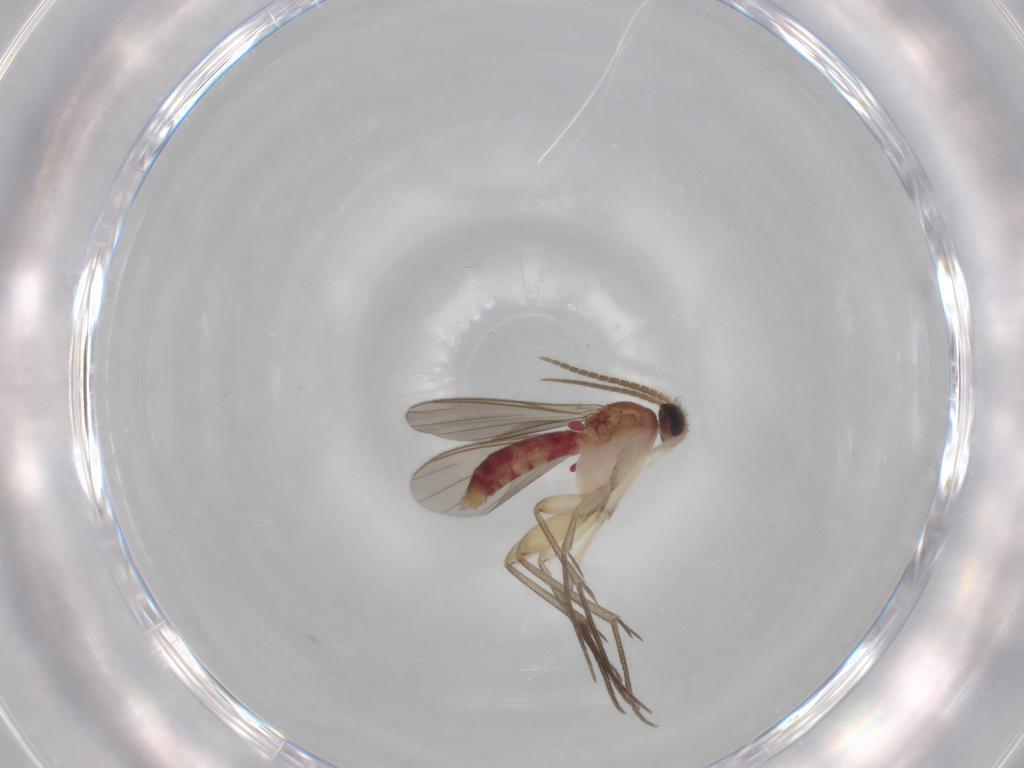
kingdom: Animalia
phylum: Arthropoda
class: Insecta
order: Diptera
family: Mycetophilidae
